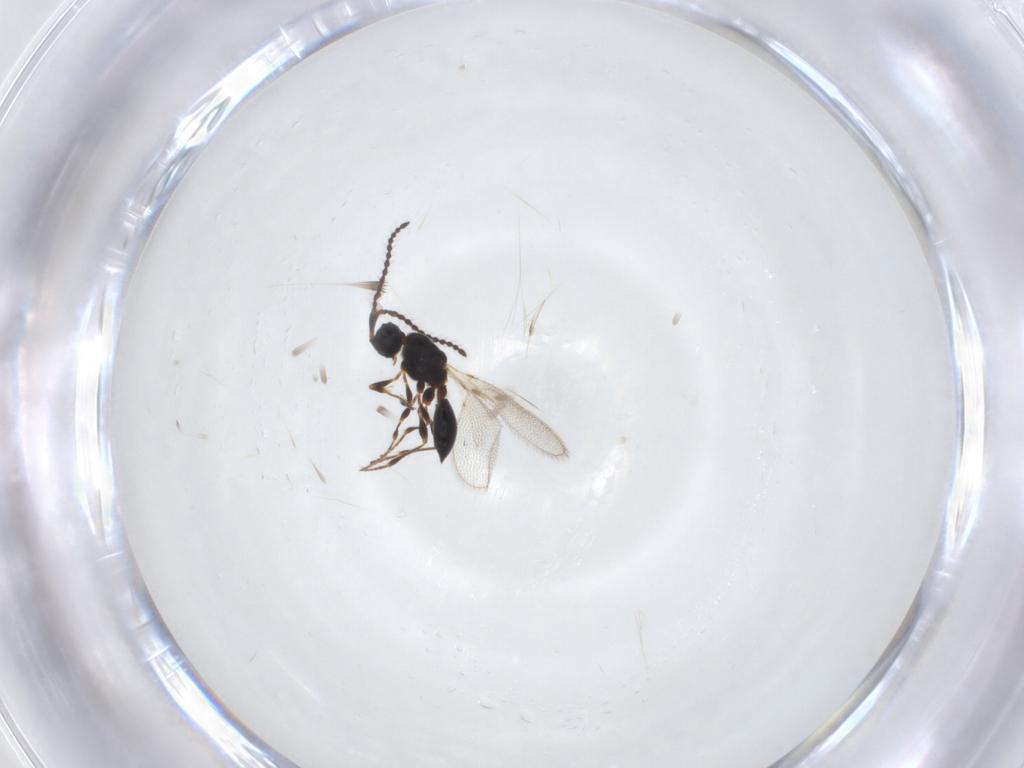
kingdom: Animalia
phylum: Arthropoda
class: Insecta
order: Hymenoptera
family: Diapriidae
